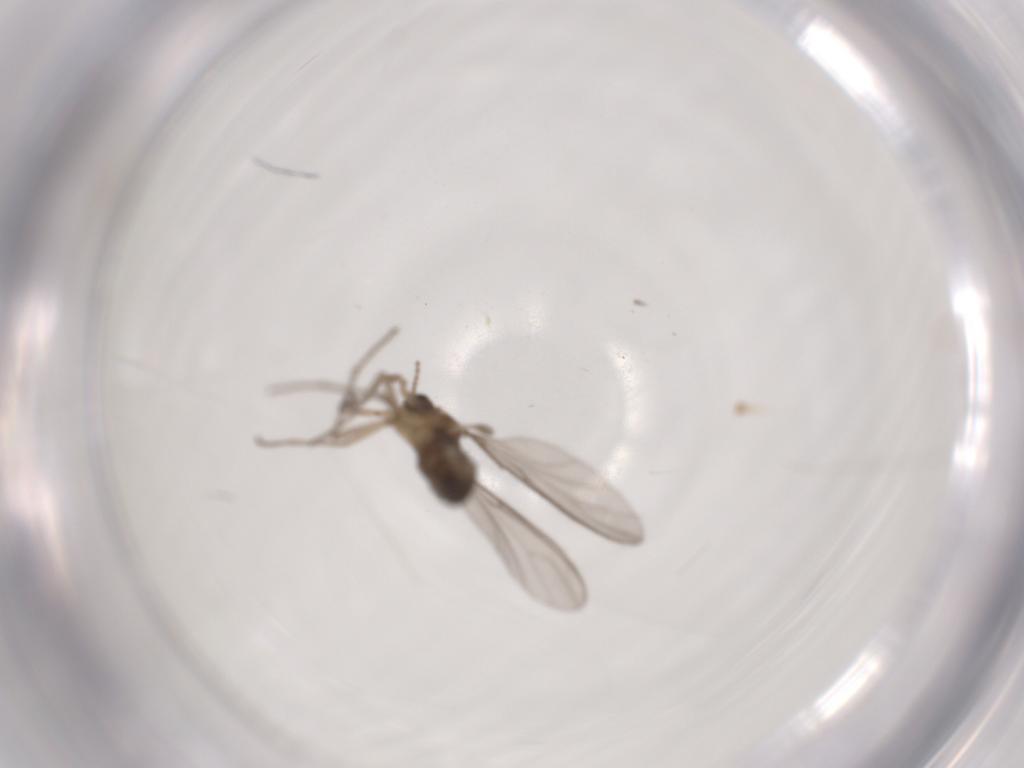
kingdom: Animalia
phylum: Arthropoda
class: Insecta
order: Diptera
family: Sciaridae
